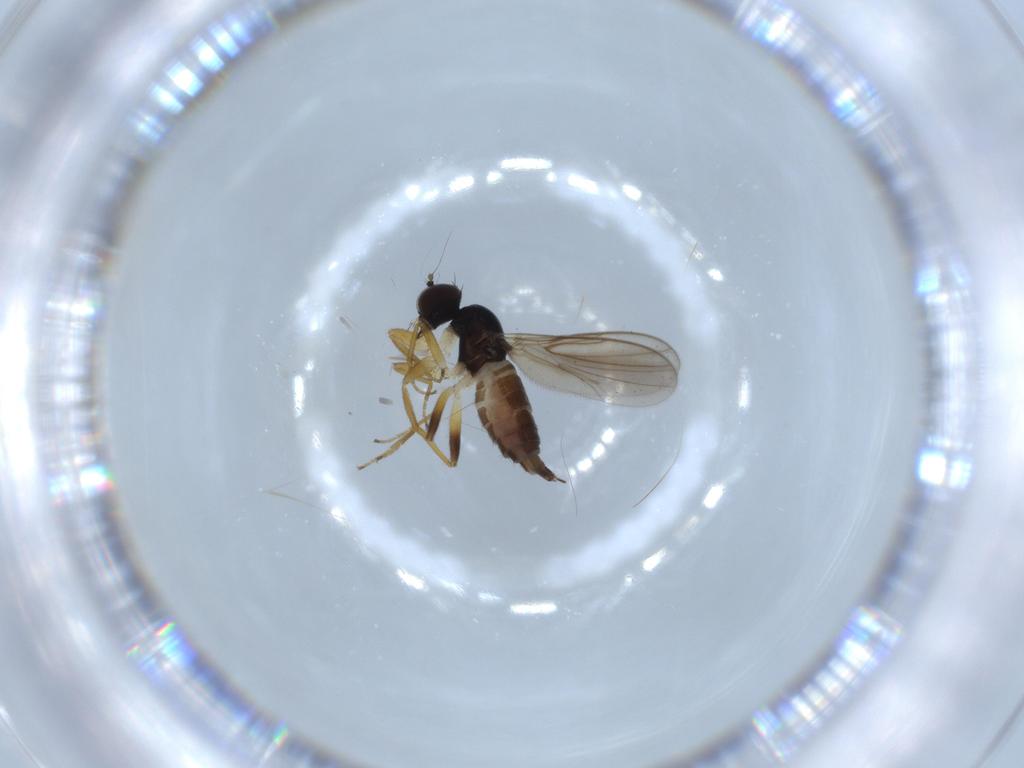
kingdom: Animalia
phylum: Arthropoda
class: Insecta
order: Diptera
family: Hybotidae
